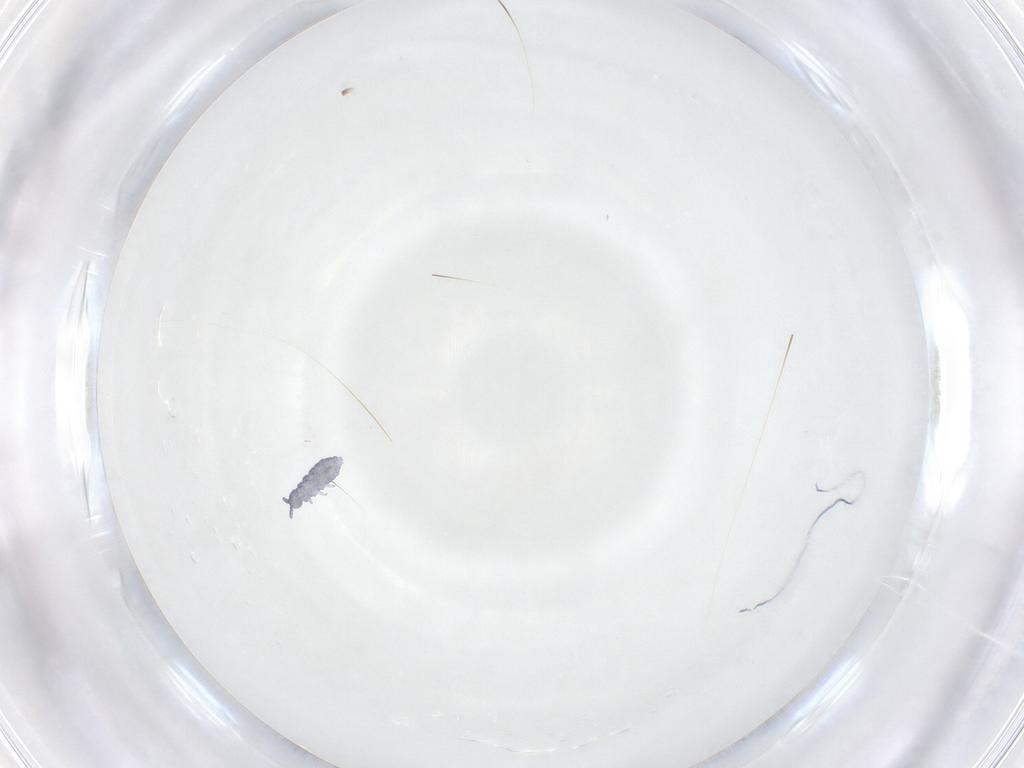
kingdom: Animalia
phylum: Arthropoda
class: Collembola
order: Poduromorpha
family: Hypogastruridae
